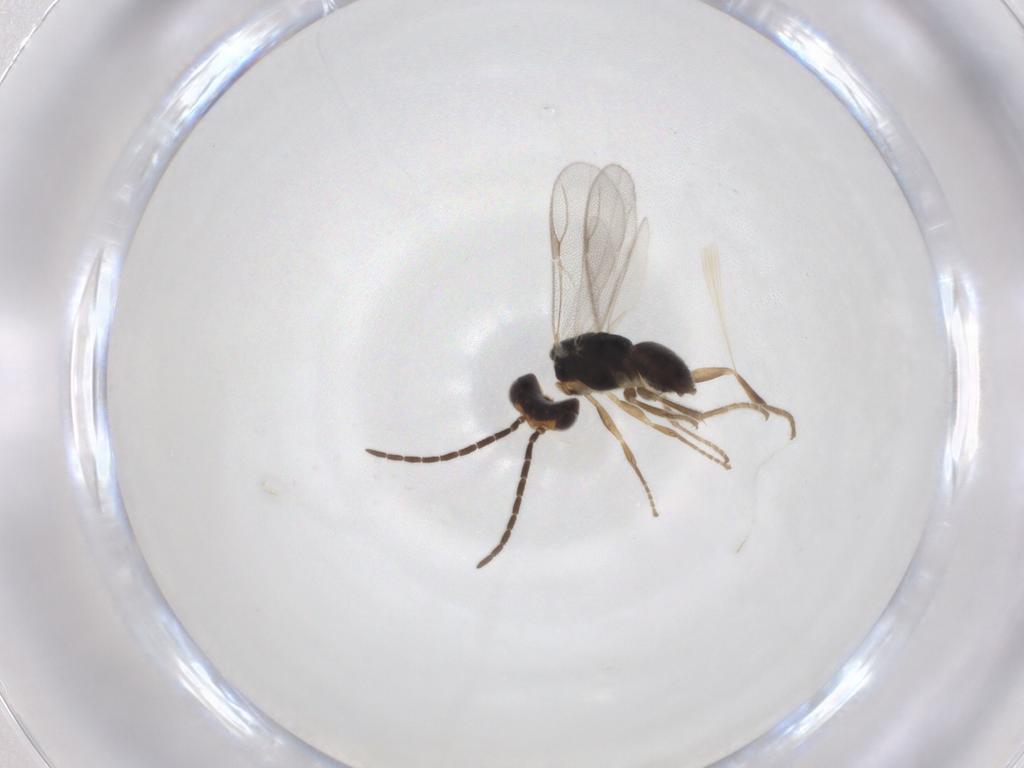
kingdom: Animalia
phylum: Arthropoda
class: Insecta
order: Hymenoptera
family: Dryinidae
